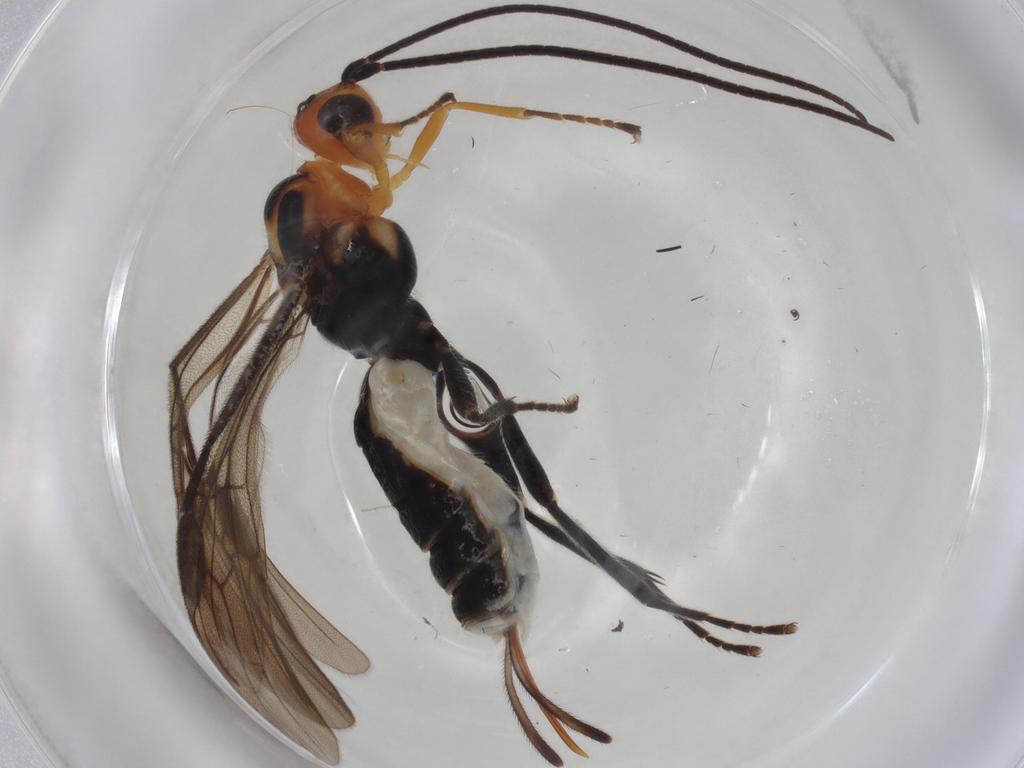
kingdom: Animalia
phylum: Arthropoda
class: Insecta
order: Hymenoptera
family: Braconidae
